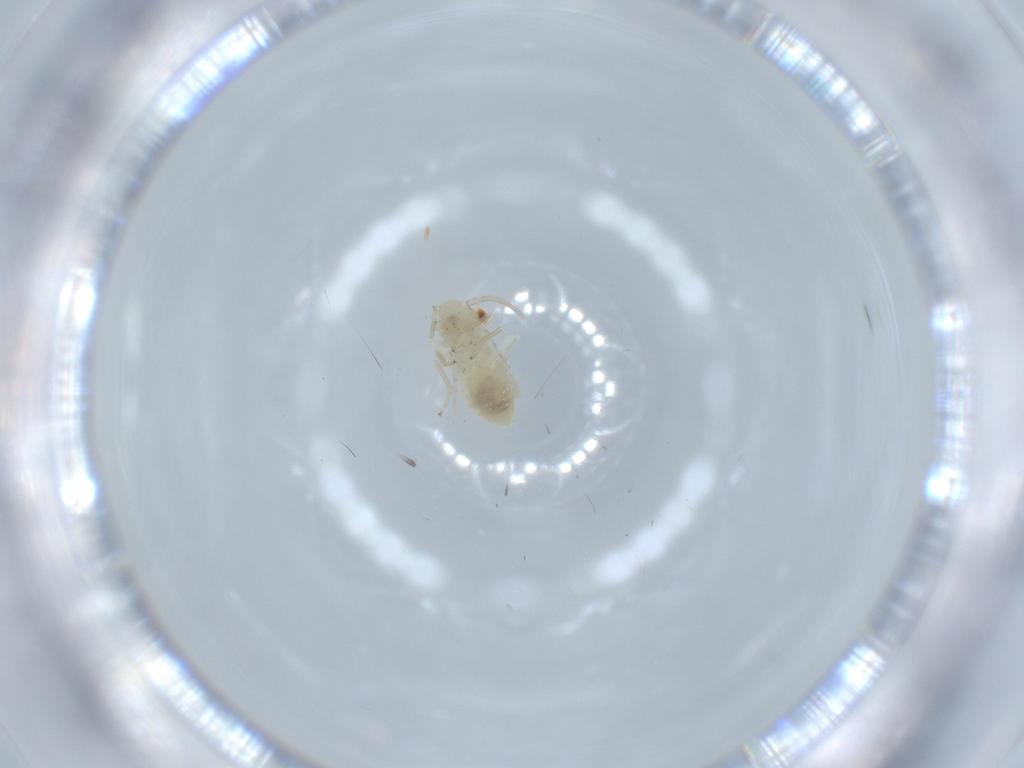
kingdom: Animalia
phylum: Arthropoda
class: Insecta
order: Psocodea
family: Caeciliusidae
